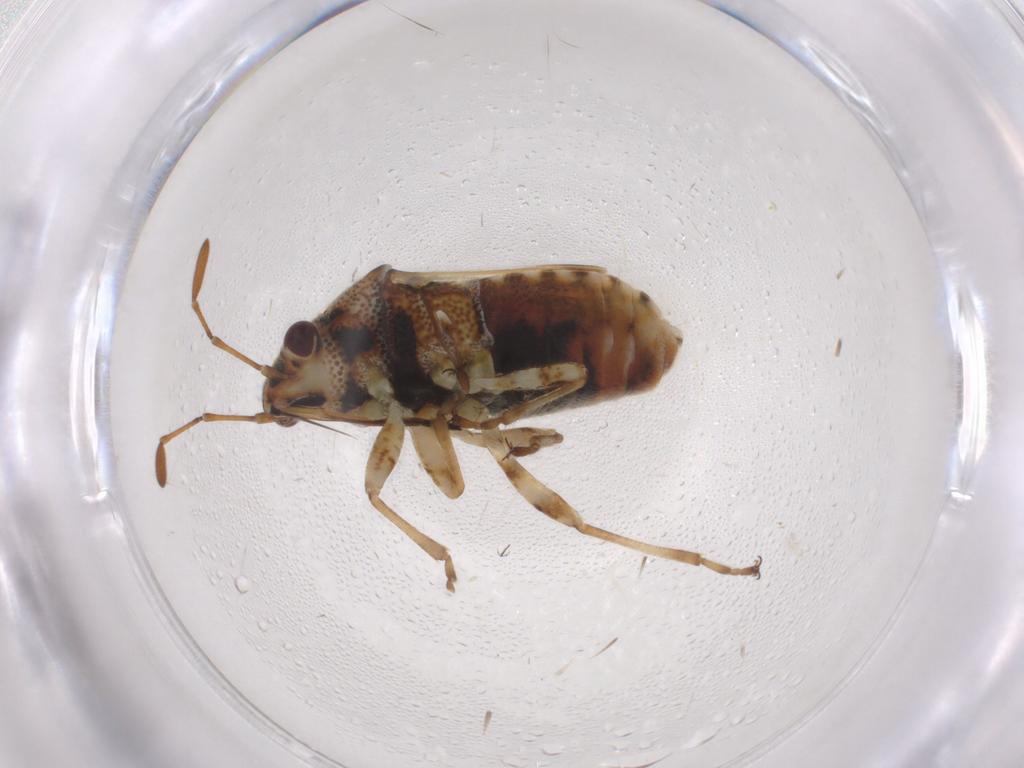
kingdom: Animalia
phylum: Arthropoda
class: Insecta
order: Hemiptera
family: Lygaeidae
